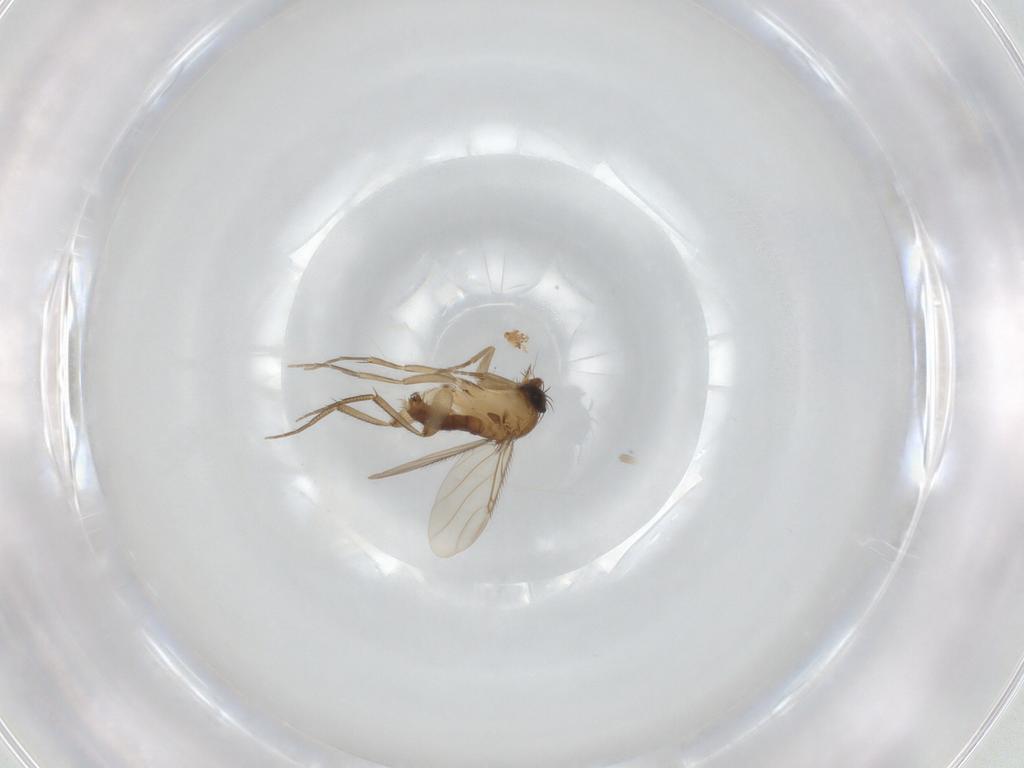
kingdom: Animalia
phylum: Arthropoda
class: Insecta
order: Diptera
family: Phoridae
